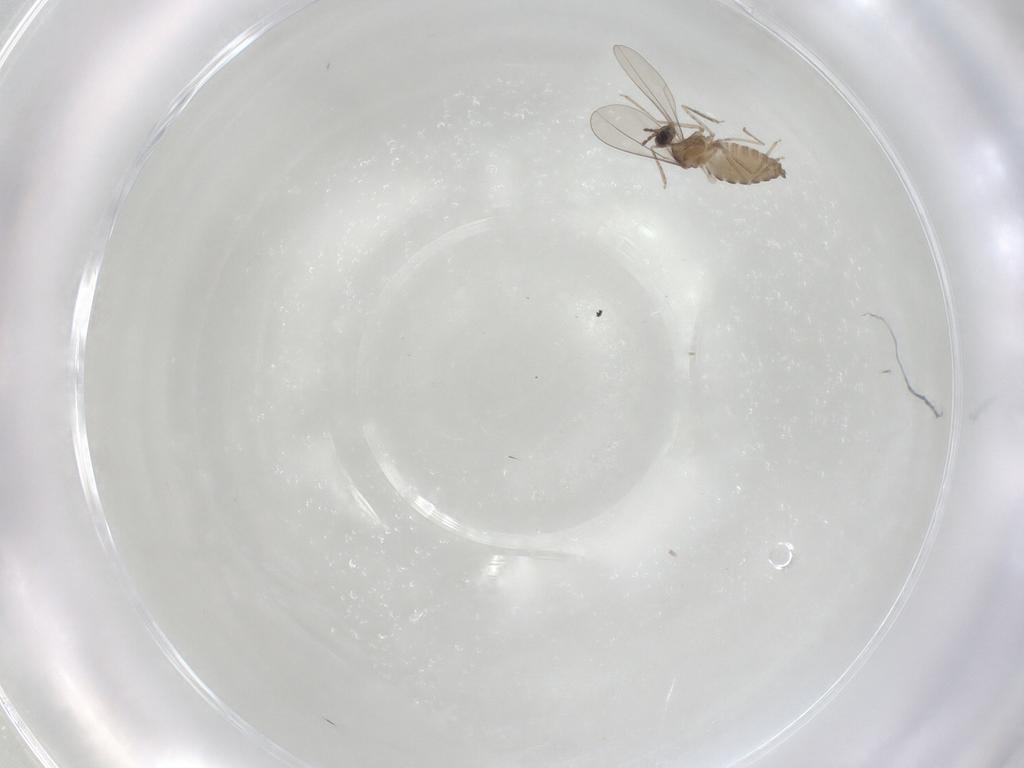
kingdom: Animalia
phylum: Arthropoda
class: Insecta
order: Diptera
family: Cecidomyiidae
